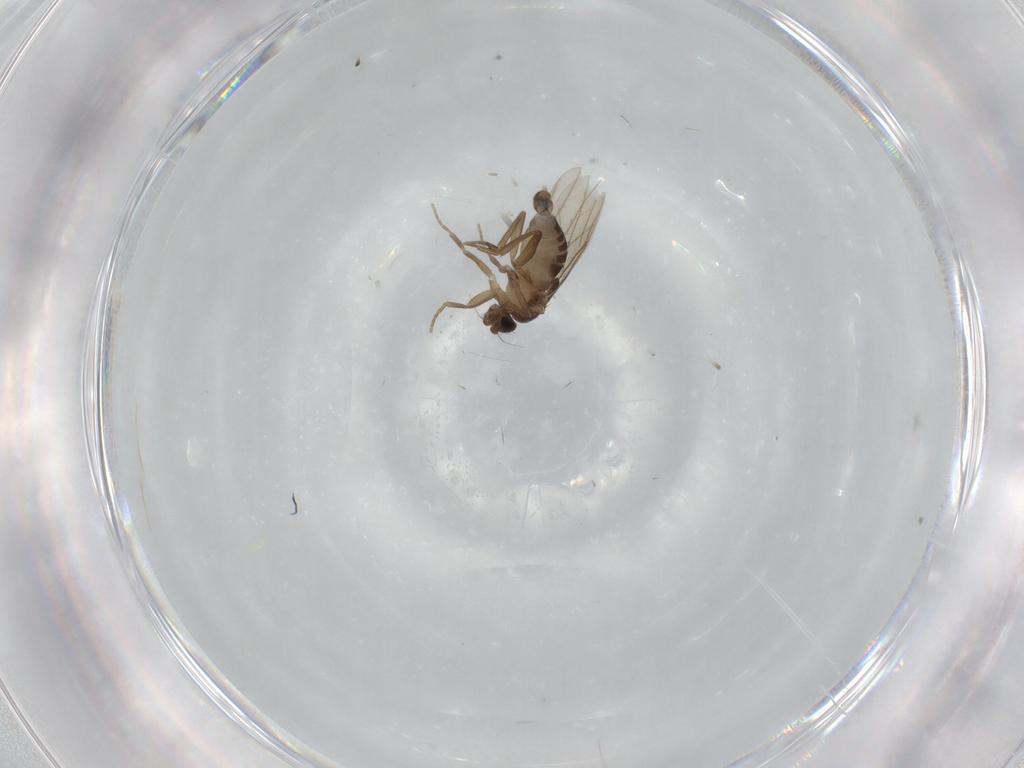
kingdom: Animalia
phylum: Arthropoda
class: Insecta
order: Diptera
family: Phoridae
